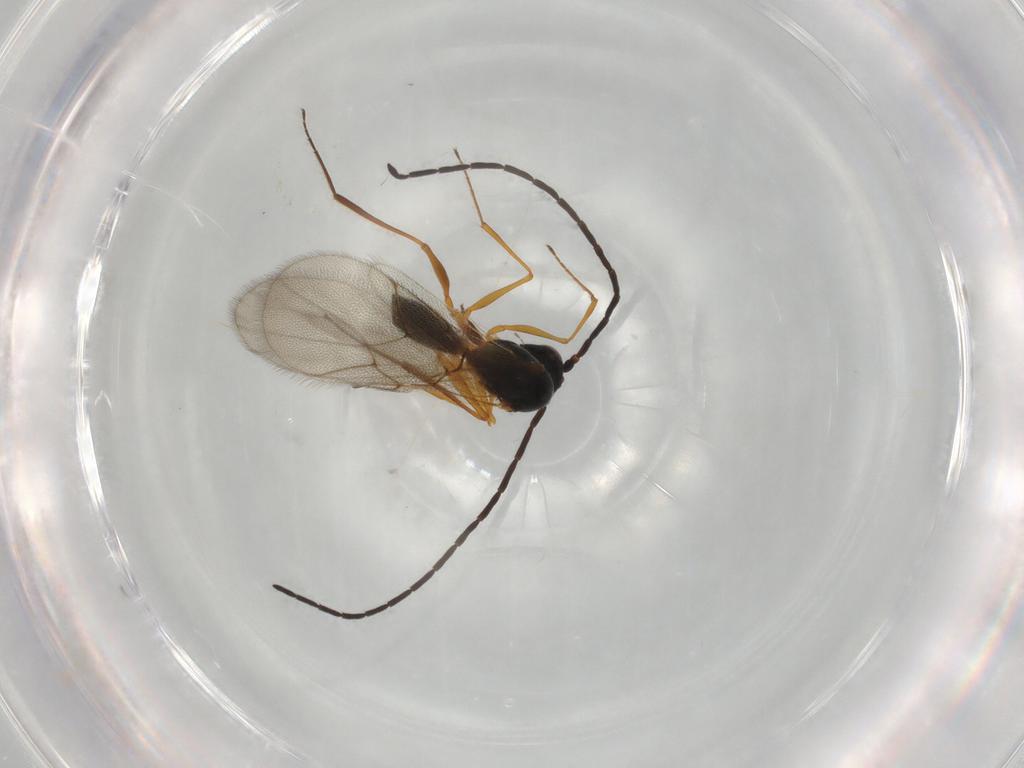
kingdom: Animalia
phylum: Arthropoda
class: Insecta
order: Hymenoptera
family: Figitidae
